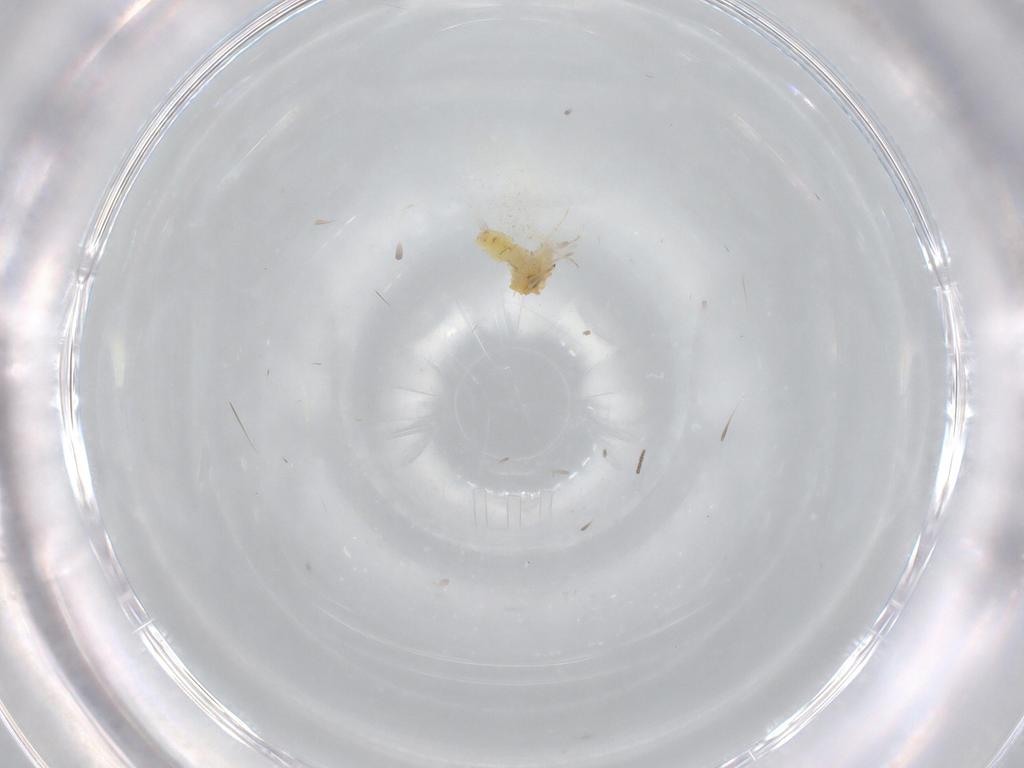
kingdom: Animalia
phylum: Arthropoda
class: Insecta
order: Hemiptera
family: Aleyrodidae
